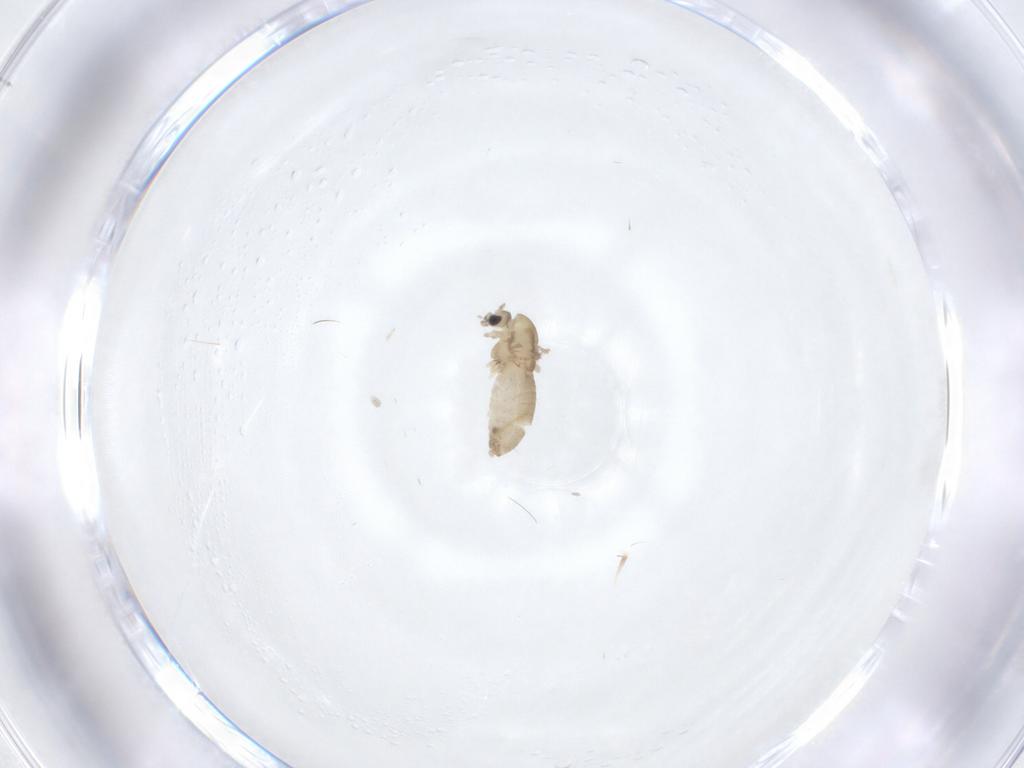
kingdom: Animalia
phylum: Arthropoda
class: Insecta
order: Diptera
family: Chironomidae
